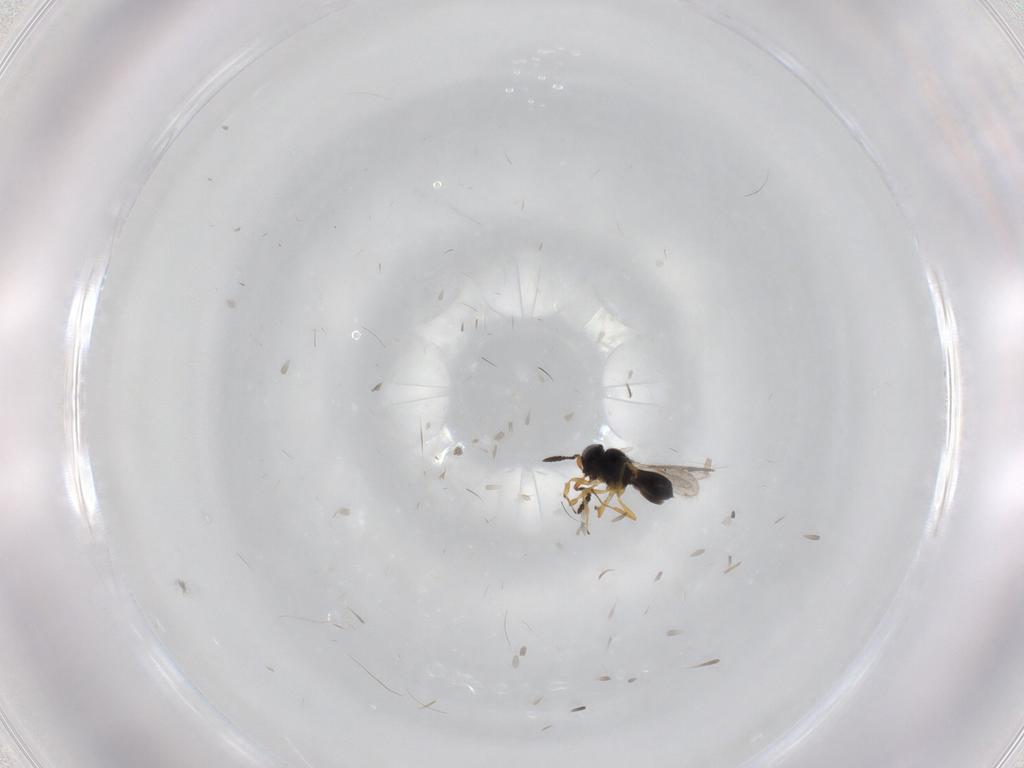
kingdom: Animalia
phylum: Arthropoda
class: Insecta
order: Hymenoptera
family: Scelionidae
